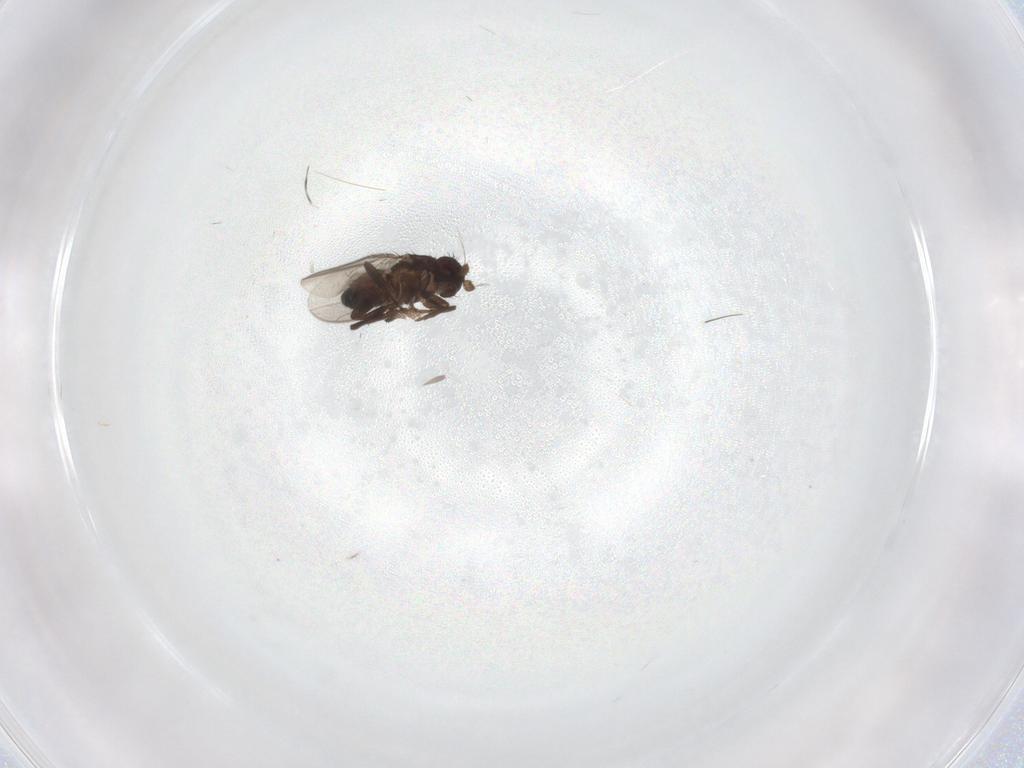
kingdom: Animalia
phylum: Arthropoda
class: Insecta
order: Diptera
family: Sphaeroceridae
